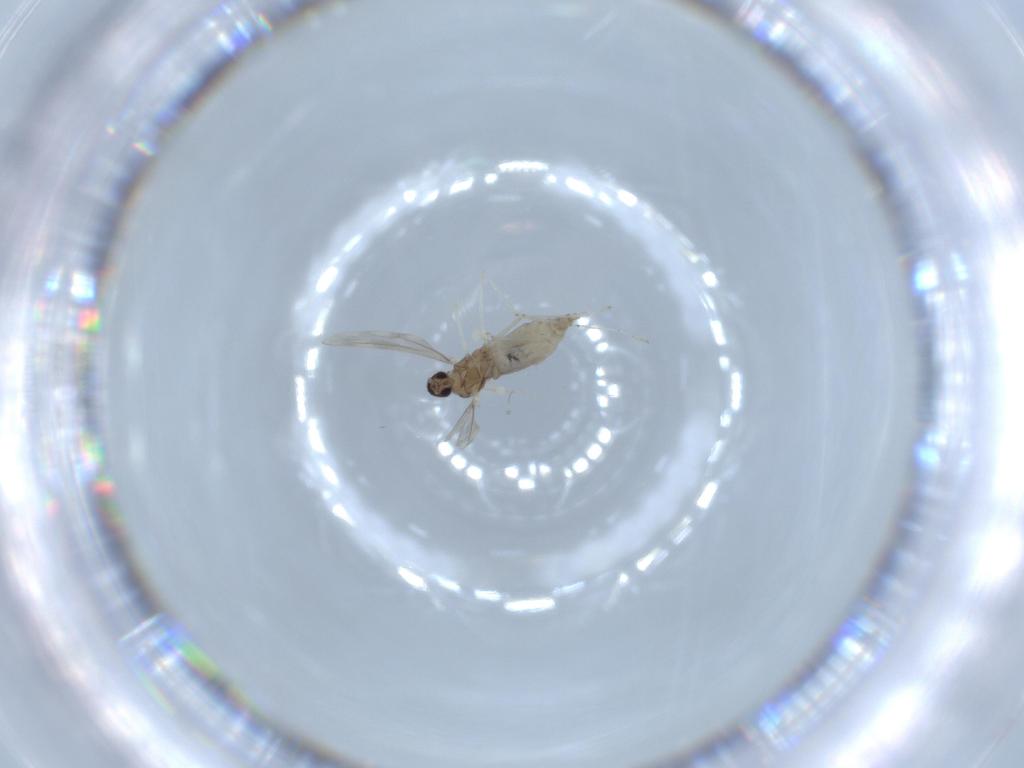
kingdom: Animalia
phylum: Arthropoda
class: Insecta
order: Diptera
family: Cecidomyiidae
